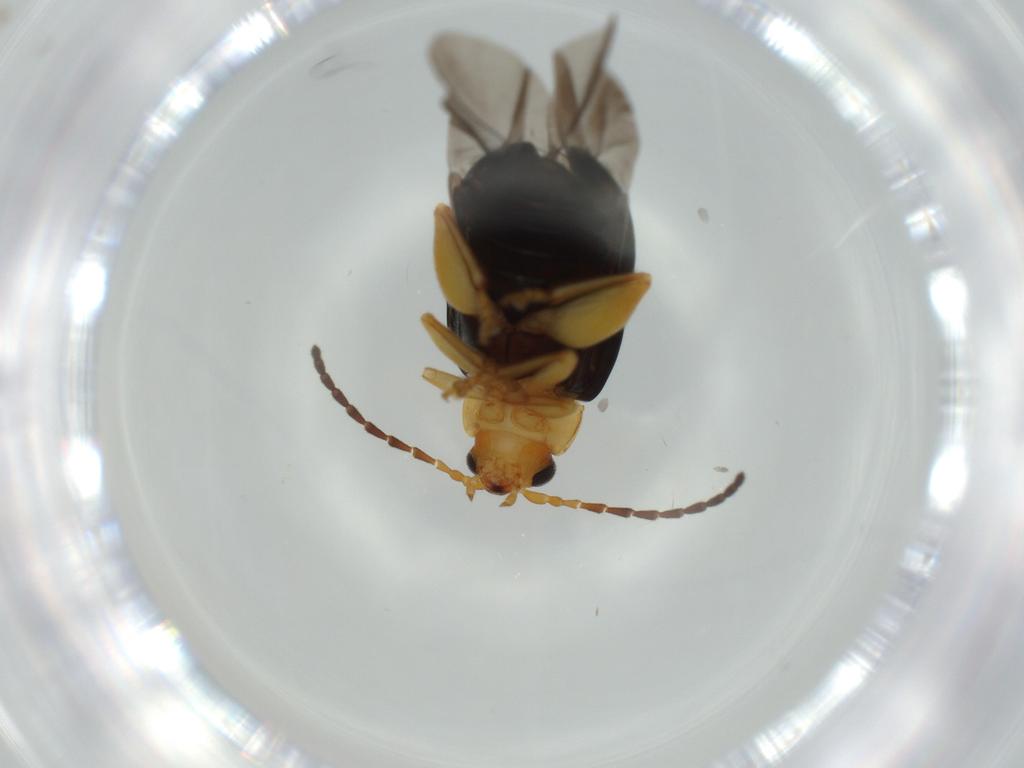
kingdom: Animalia
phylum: Arthropoda
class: Insecta
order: Coleoptera
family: Chrysomelidae
